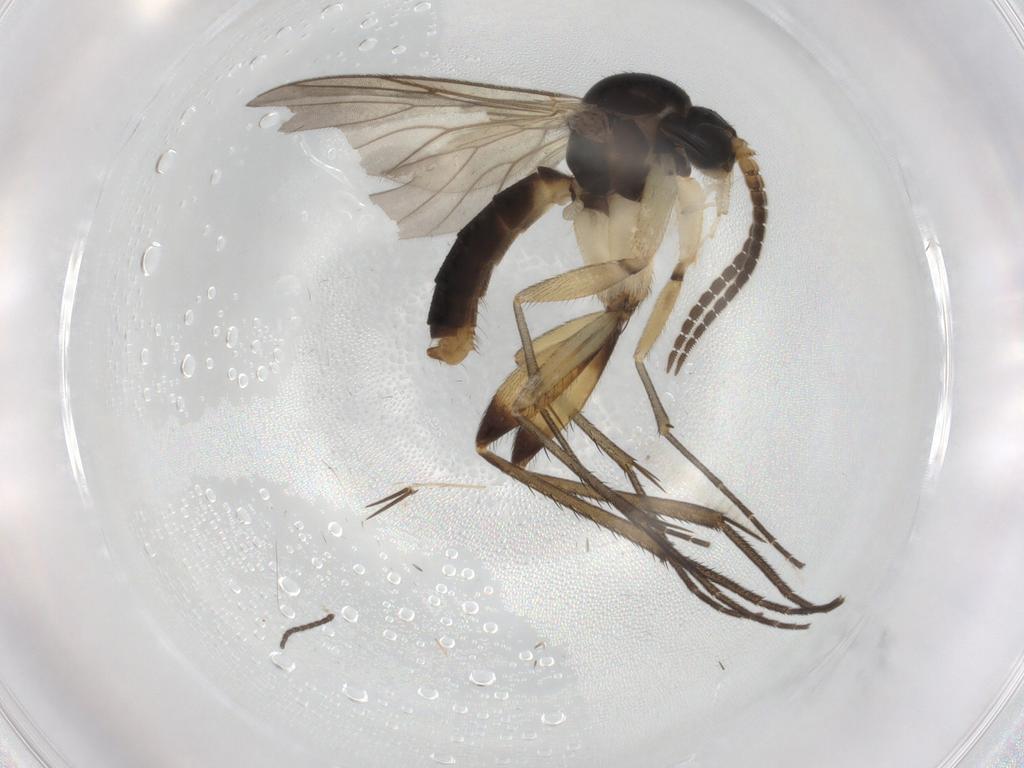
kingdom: Animalia
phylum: Arthropoda
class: Insecta
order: Diptera
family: Mycetophilidae
